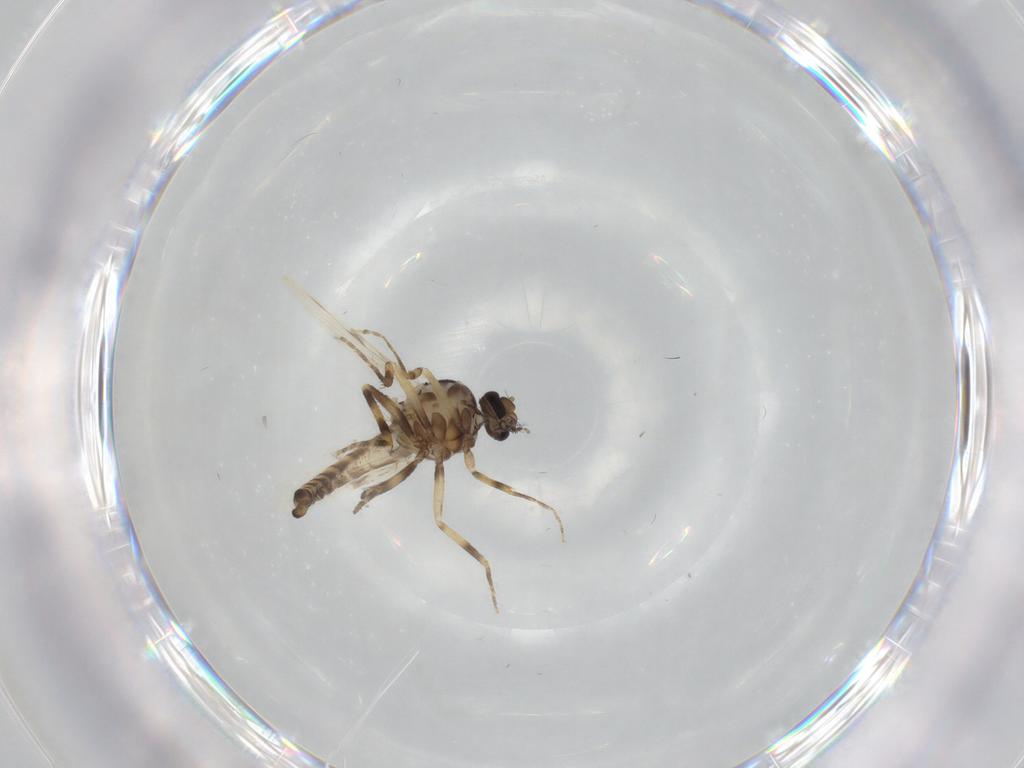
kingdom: Animalia
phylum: Arthropoda
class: Insecta
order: Diptera
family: Ceratopogonidae
